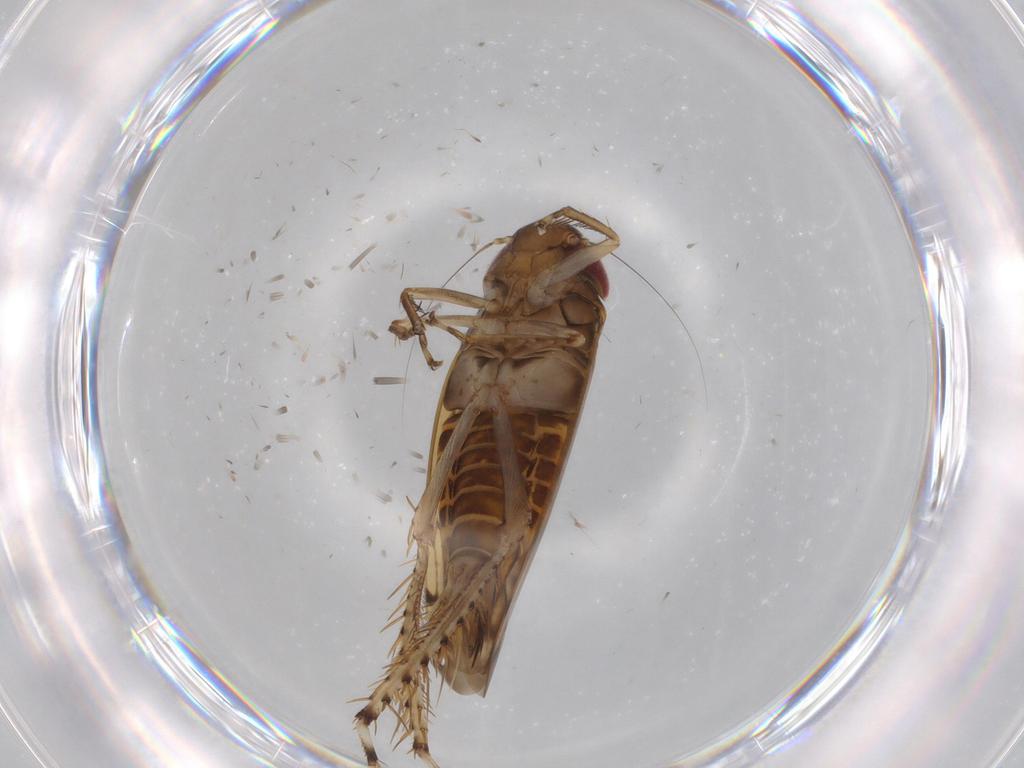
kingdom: Animalia
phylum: Arthropoda
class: Insecta
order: Hemiptera
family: Cicadellidae
